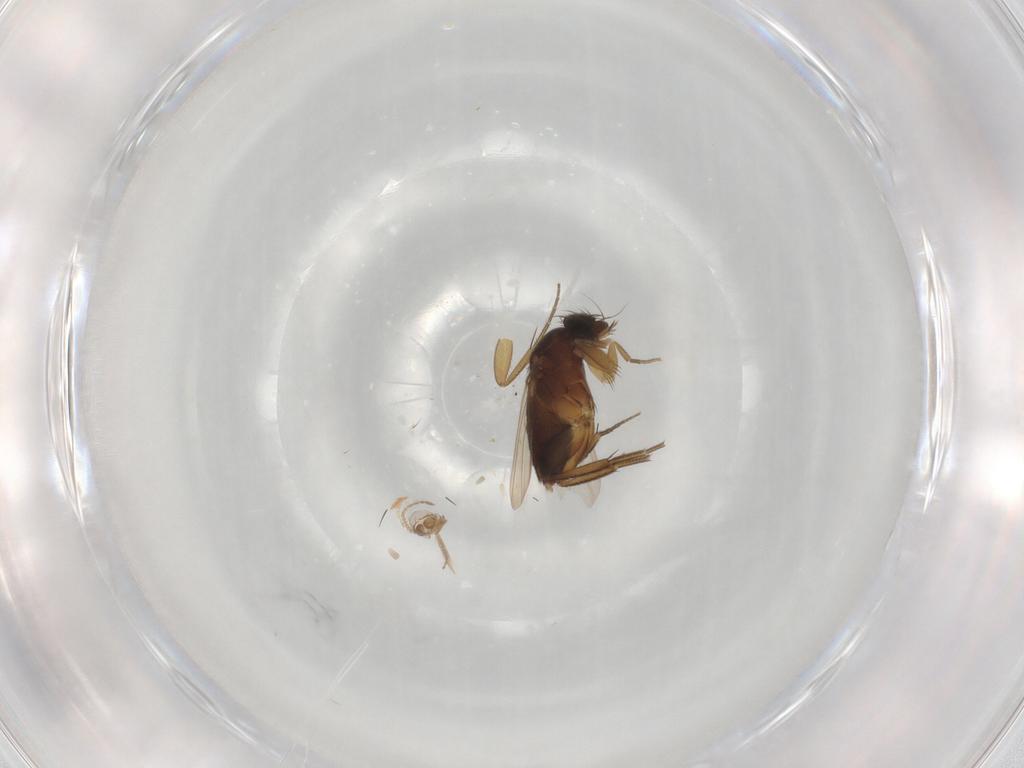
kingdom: Animalia
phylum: Arthropoda
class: Insecta
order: Diptera
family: Phoridae
